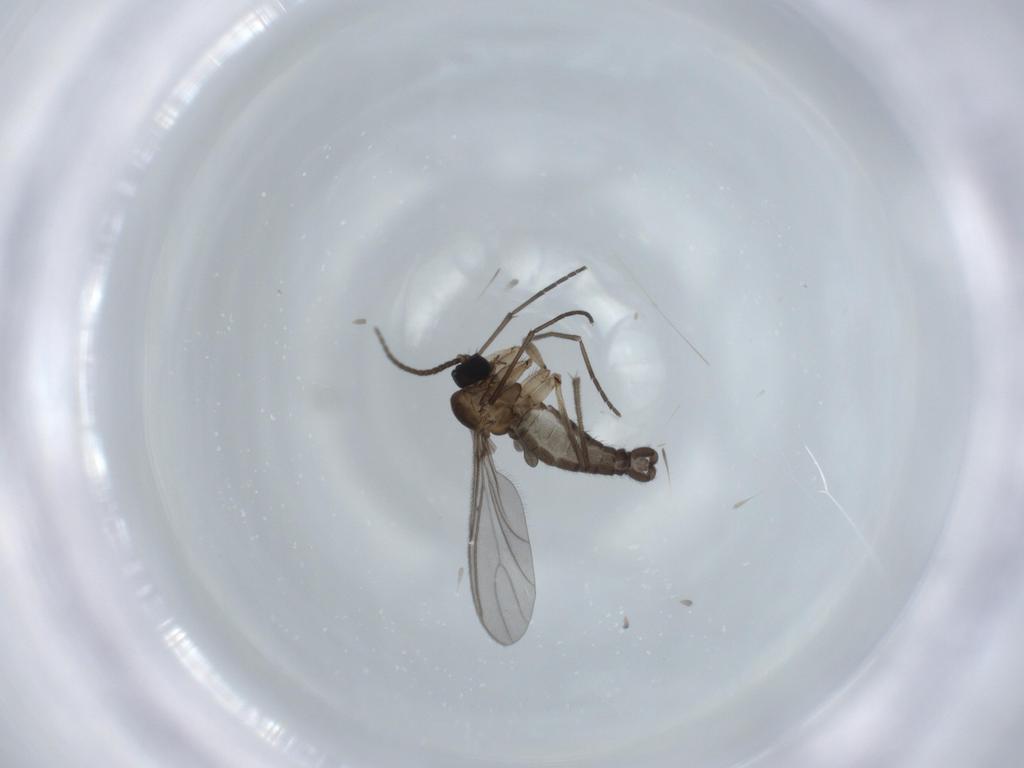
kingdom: Animalia
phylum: Arthropoda
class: Insecta
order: Diptera
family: Sciaridae
